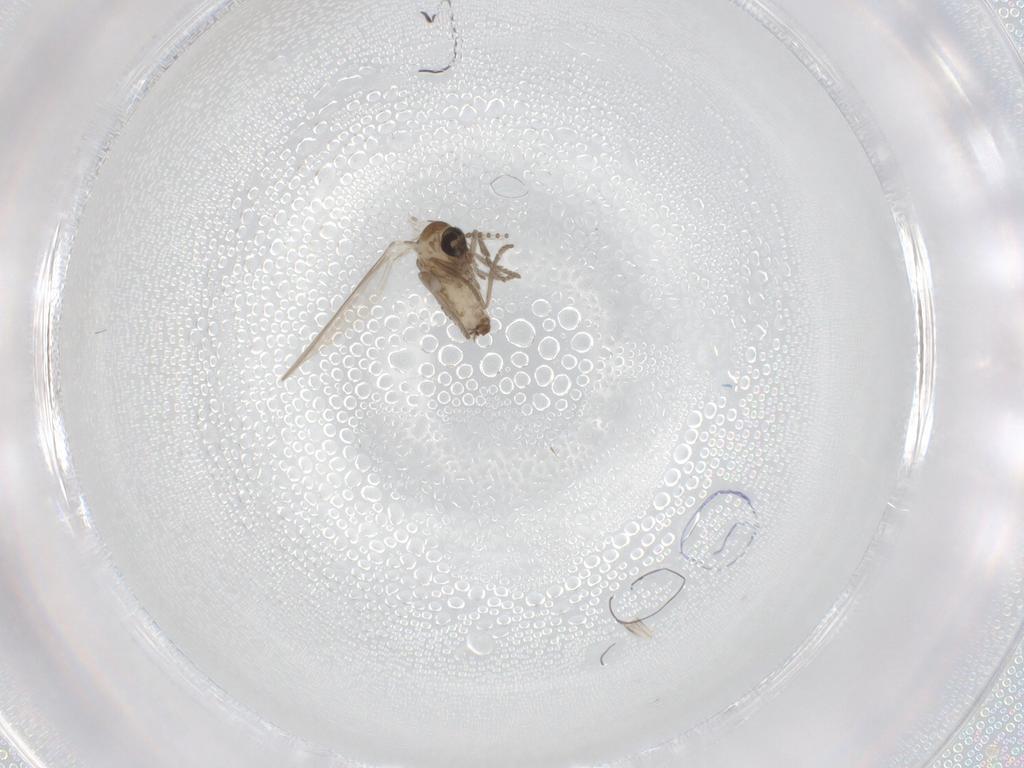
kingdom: Animalia
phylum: Arthropoda
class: Insecta
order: Diptera
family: Psychodidae
